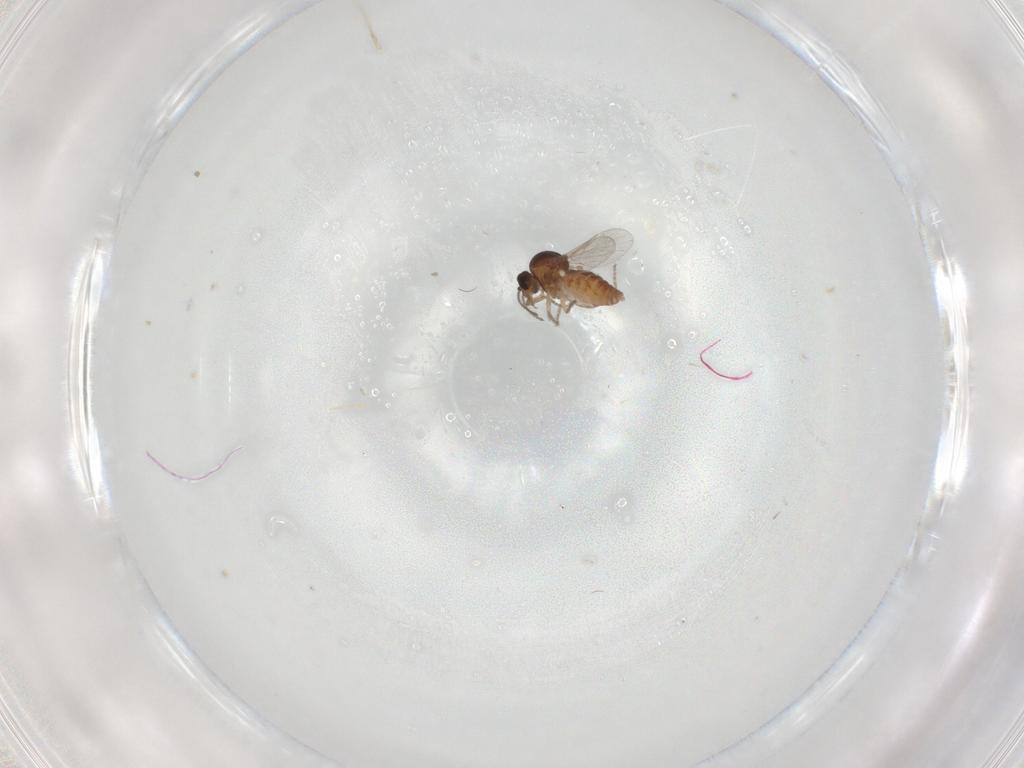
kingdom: Animalia
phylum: Arthropoda
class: Insecta
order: Diptera
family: Ceratopogonidae
